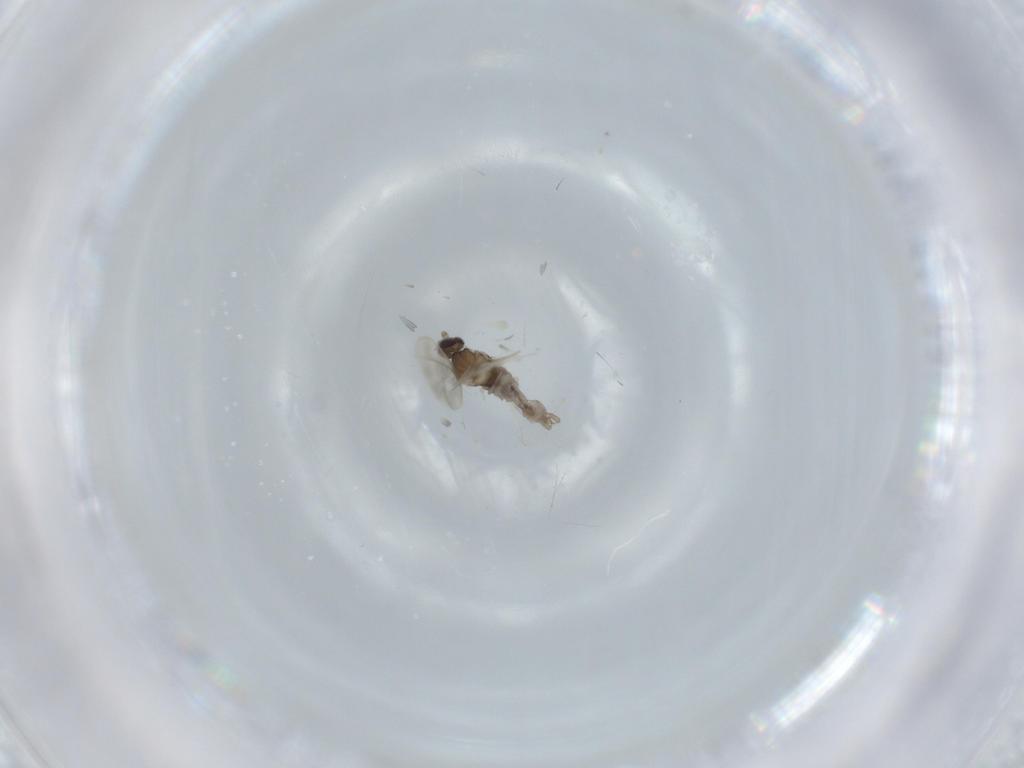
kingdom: Animalia
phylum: Arthropoda
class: Insecta
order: Diptera
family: Cecidomyiidae
